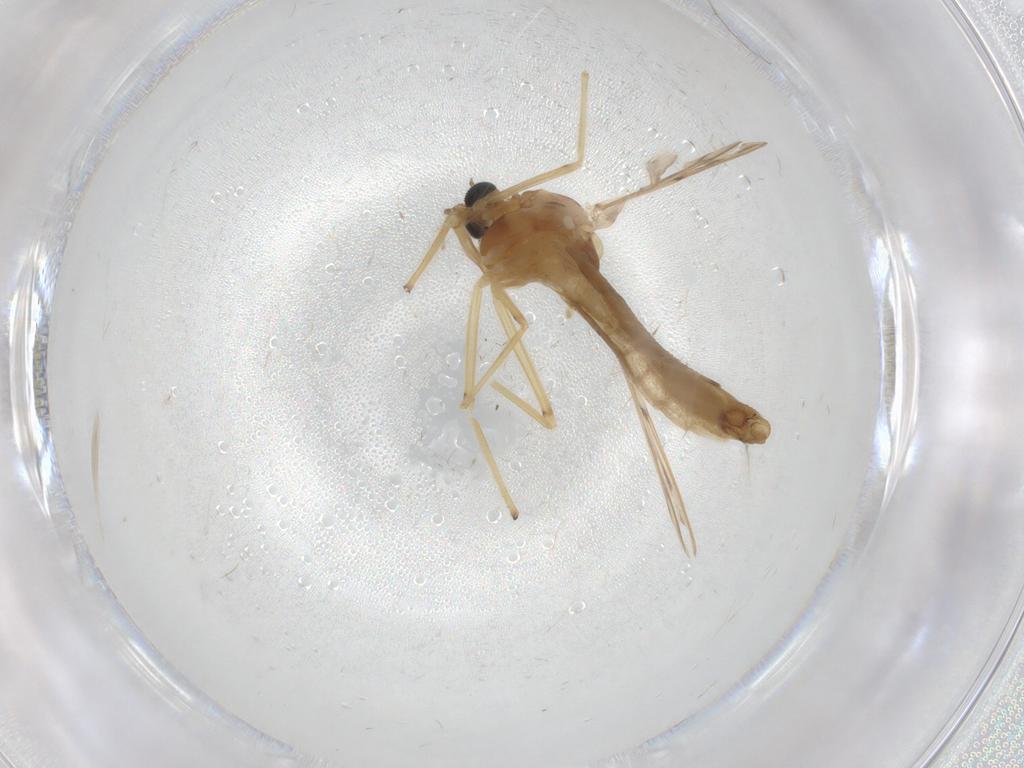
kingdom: Animalia
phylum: Arthropoda
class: Insecta
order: Diptera
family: Chironomidae
